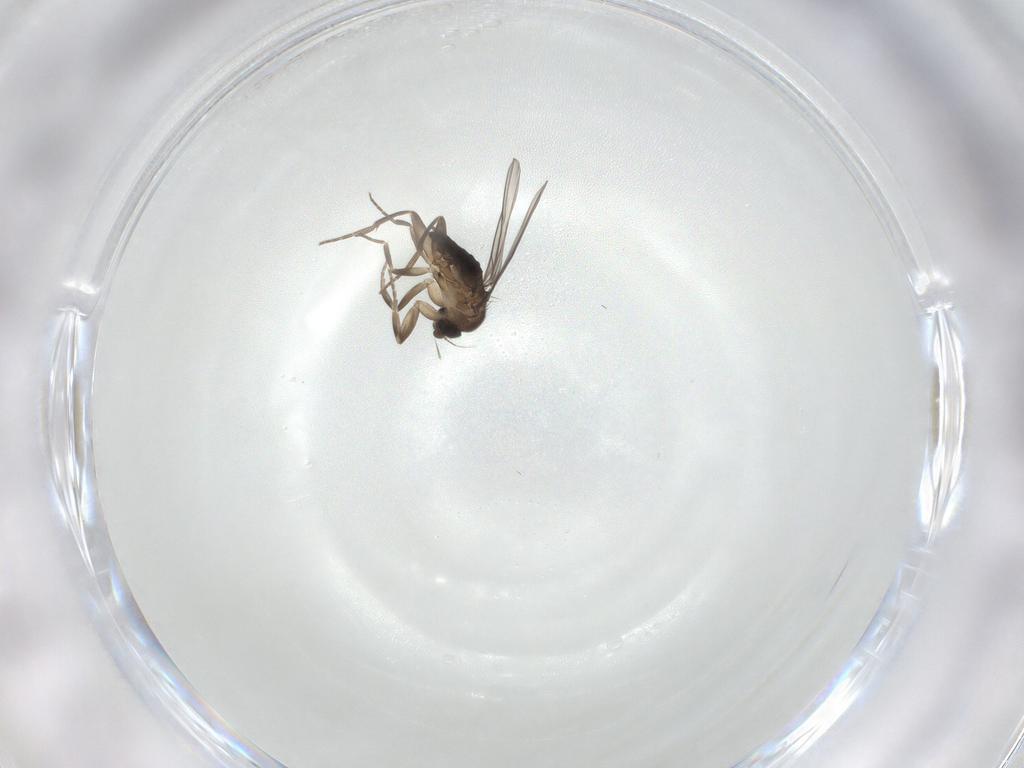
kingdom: Animalia
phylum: Arthropoda
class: Insecta
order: Diptera
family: Phoridae
